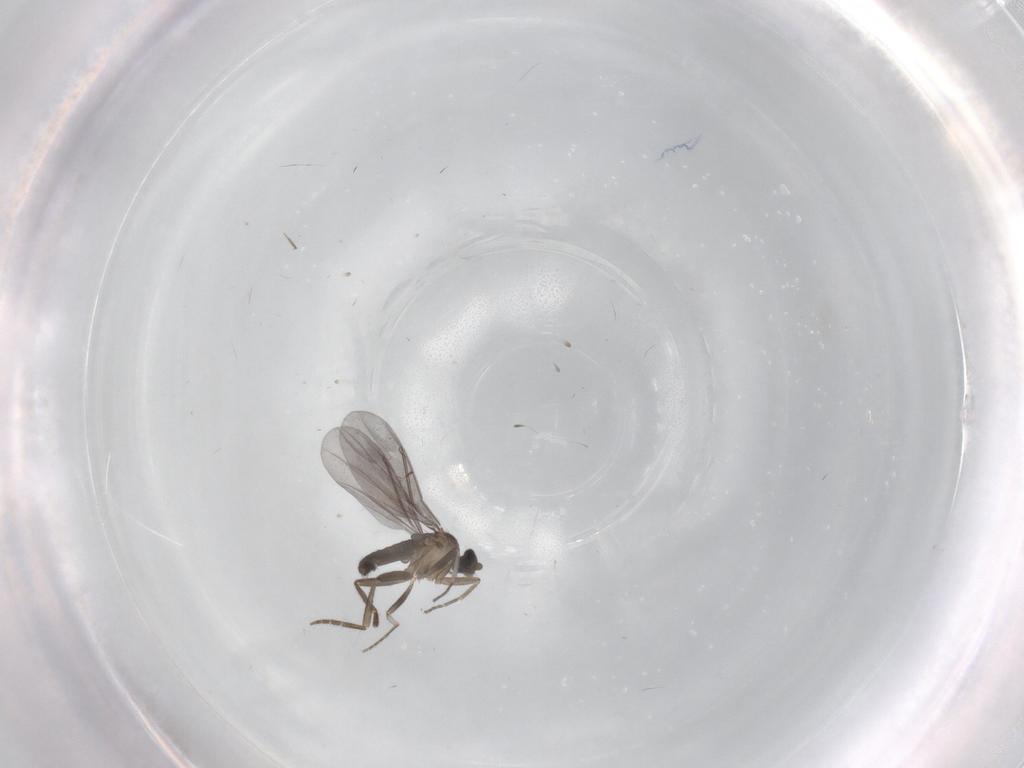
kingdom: Animalia
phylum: Arthropoda
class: Insecta
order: Diptera
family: Phoridae
